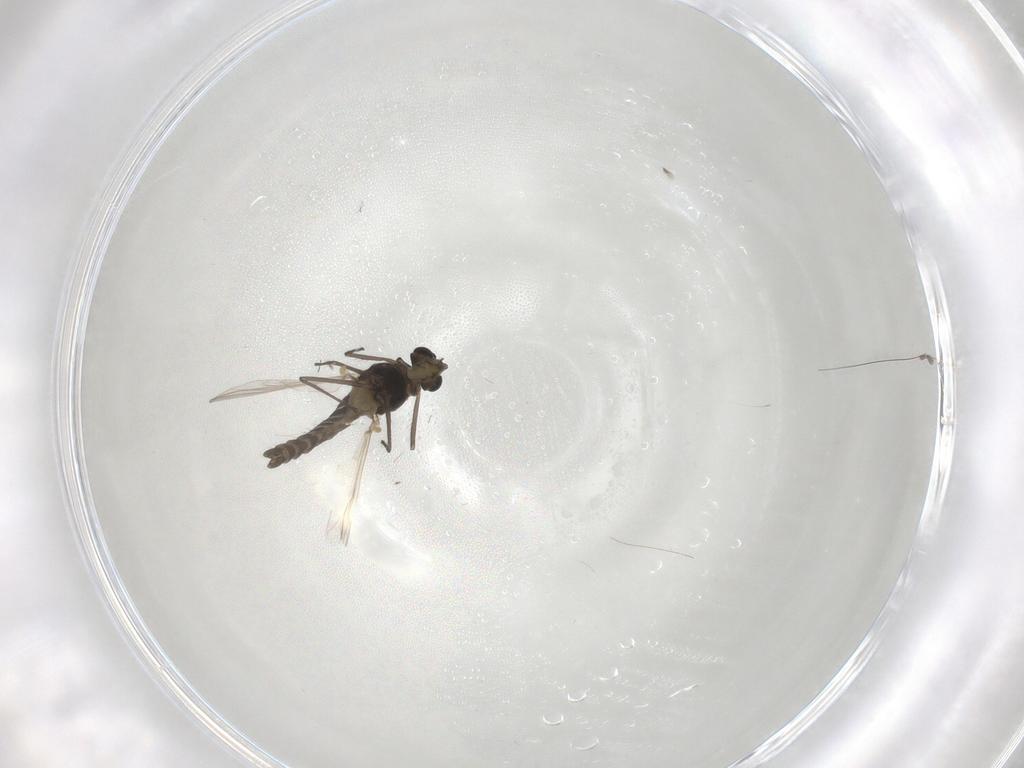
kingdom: Animalia
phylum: Arthropoda
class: Insecta
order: Diptera
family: Chironomidae
